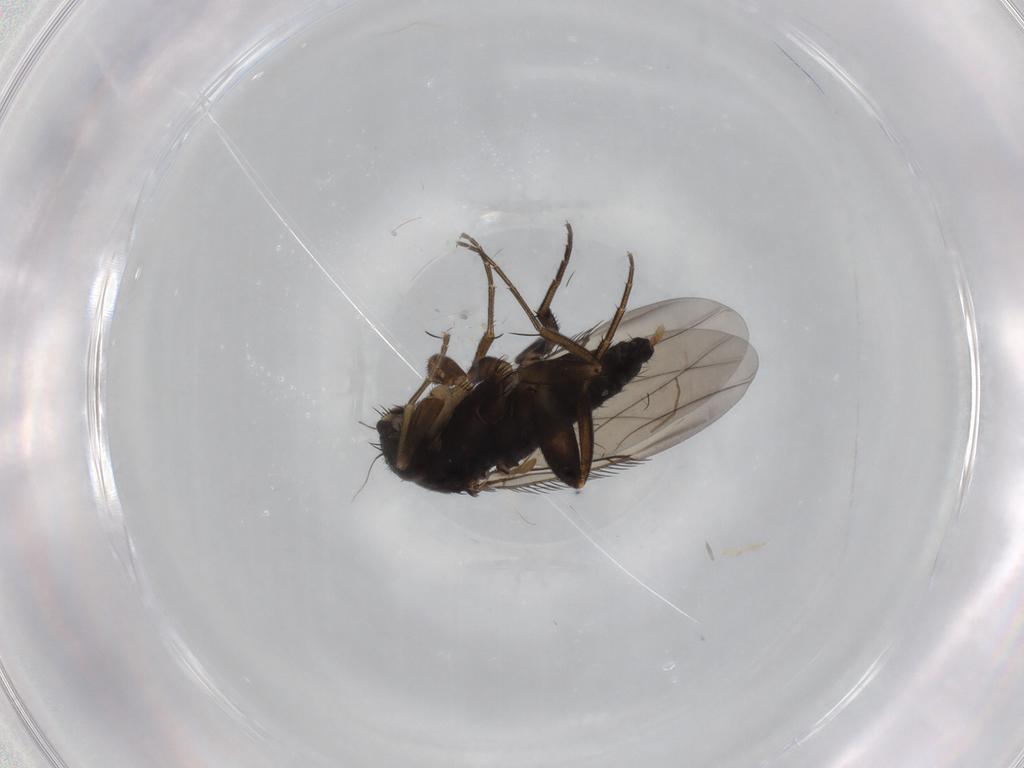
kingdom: Animalia
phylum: Arthropoda
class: Insecta
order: Diptera
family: Phoridae
